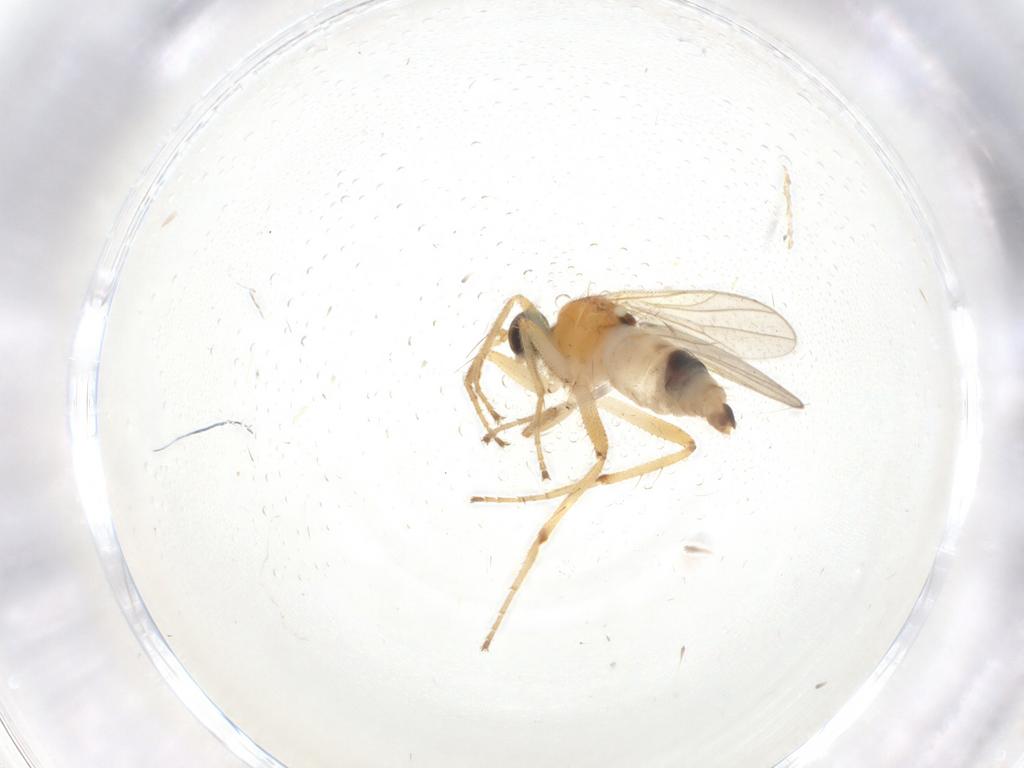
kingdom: Animalia
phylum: Arthropoda
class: Insecta
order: Diptera
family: Hybotidae
